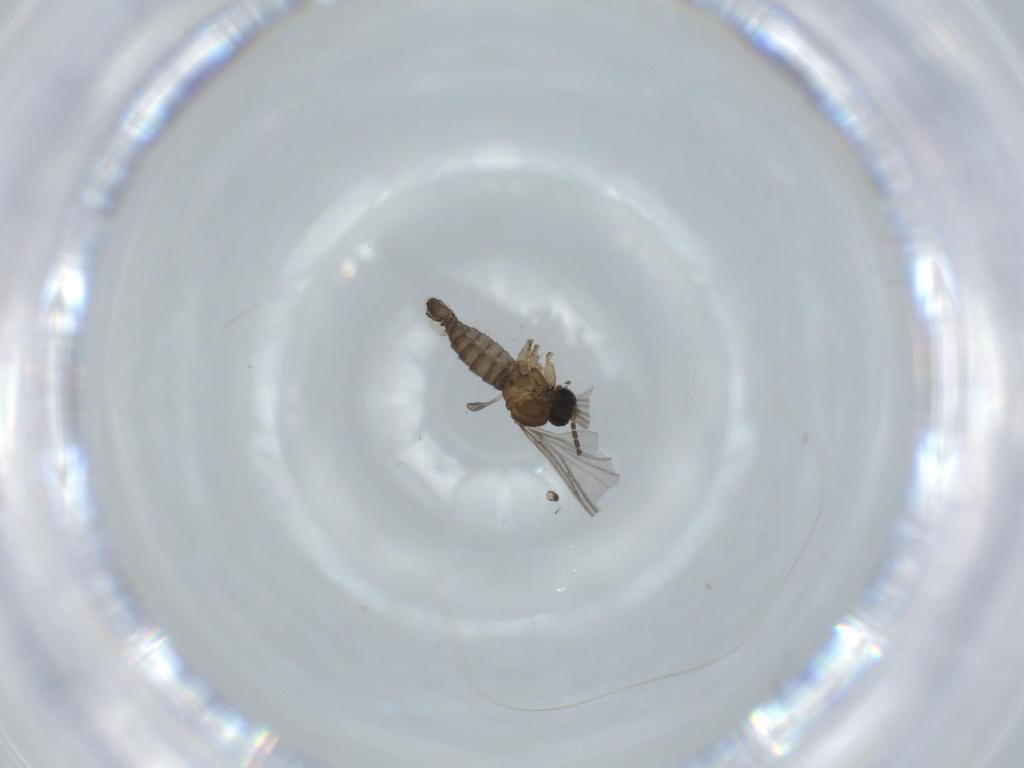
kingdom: Animalia
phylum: Arthropoda
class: Insecta
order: Diptera
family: Sciaridae
